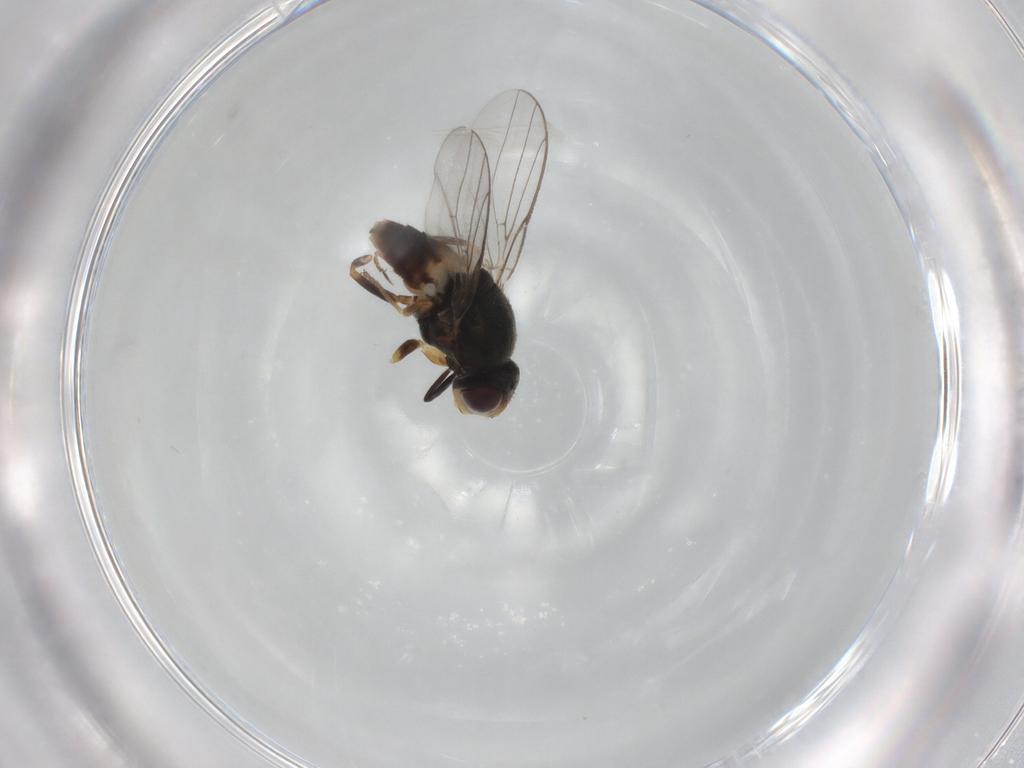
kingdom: Animalia
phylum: Arthropoda
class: Insecta
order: Diptera
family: Chloropidae
